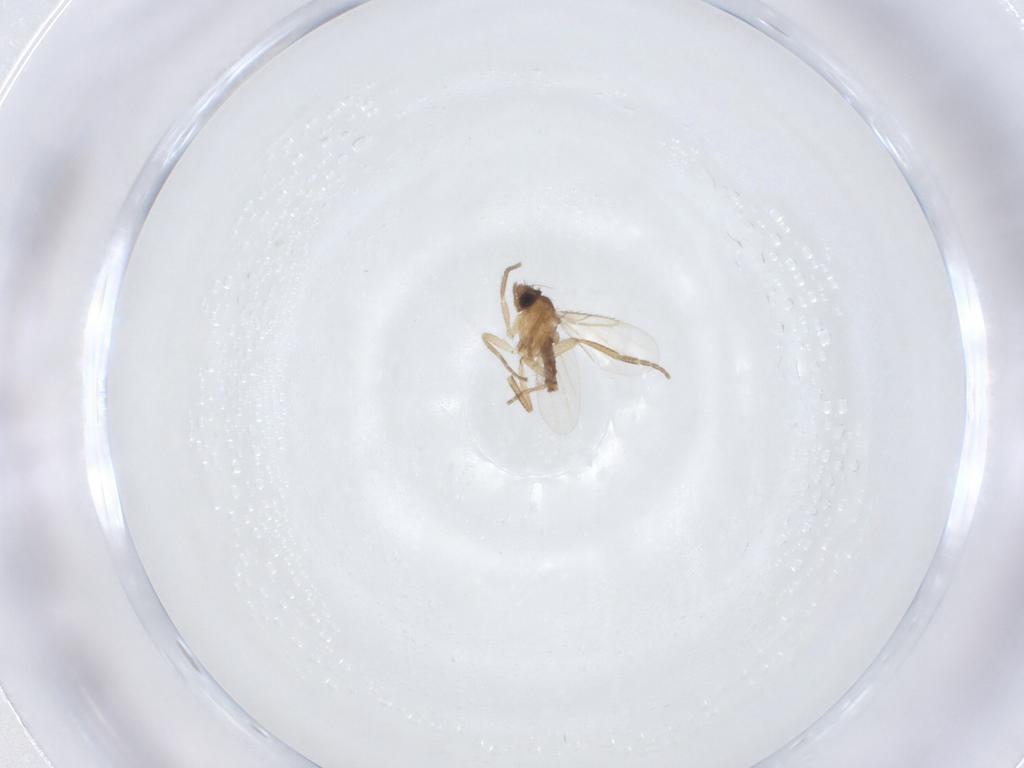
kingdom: Animalia
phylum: Arthropoda
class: Insecta
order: Diptera
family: Phoridae
